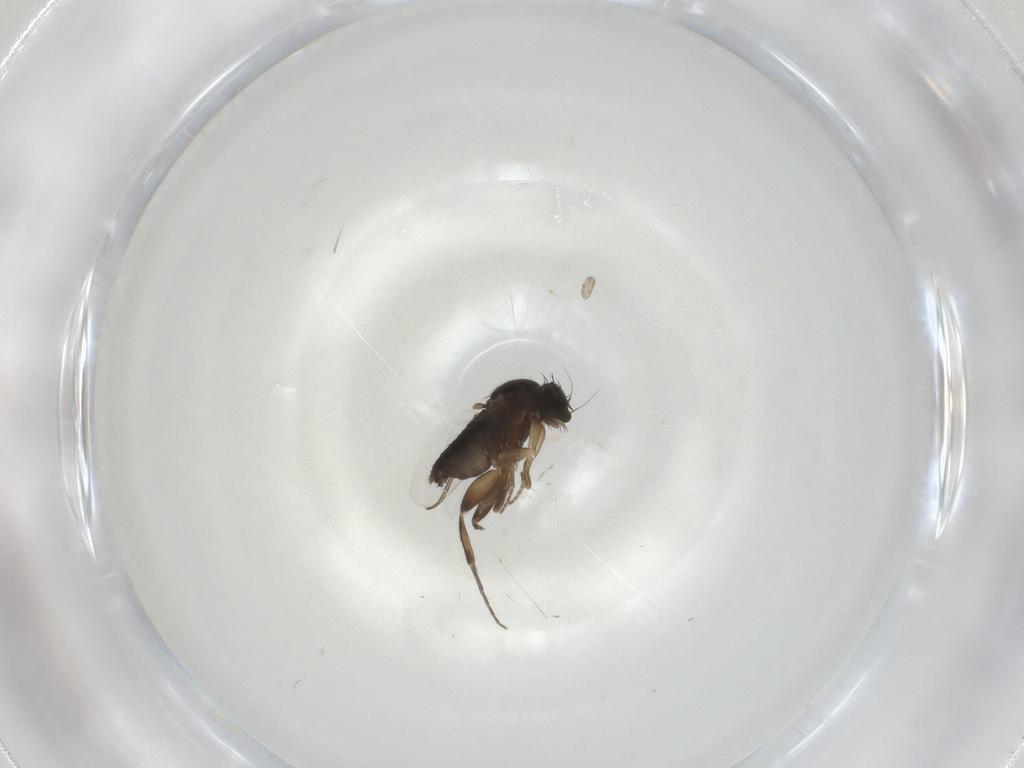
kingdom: Animalia
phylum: Arthropoda
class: Insecta
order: Diptera
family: Phoridae
